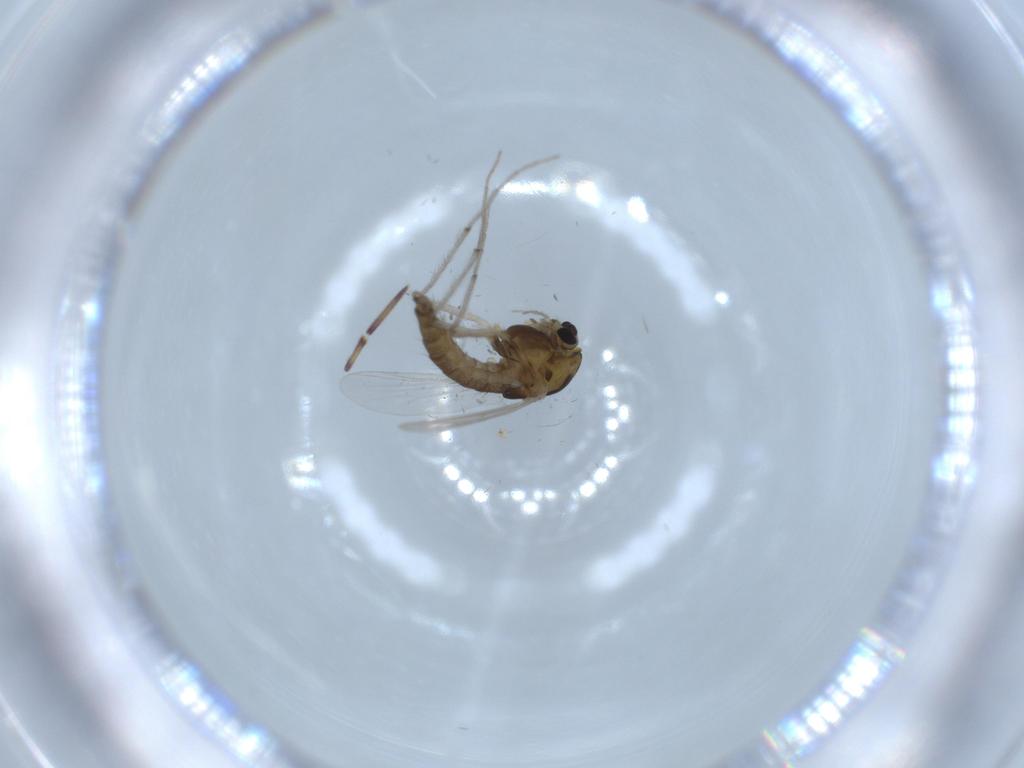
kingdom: Animalia
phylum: Arthropoda
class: Insecta
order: Diptera
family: Chironomidae
